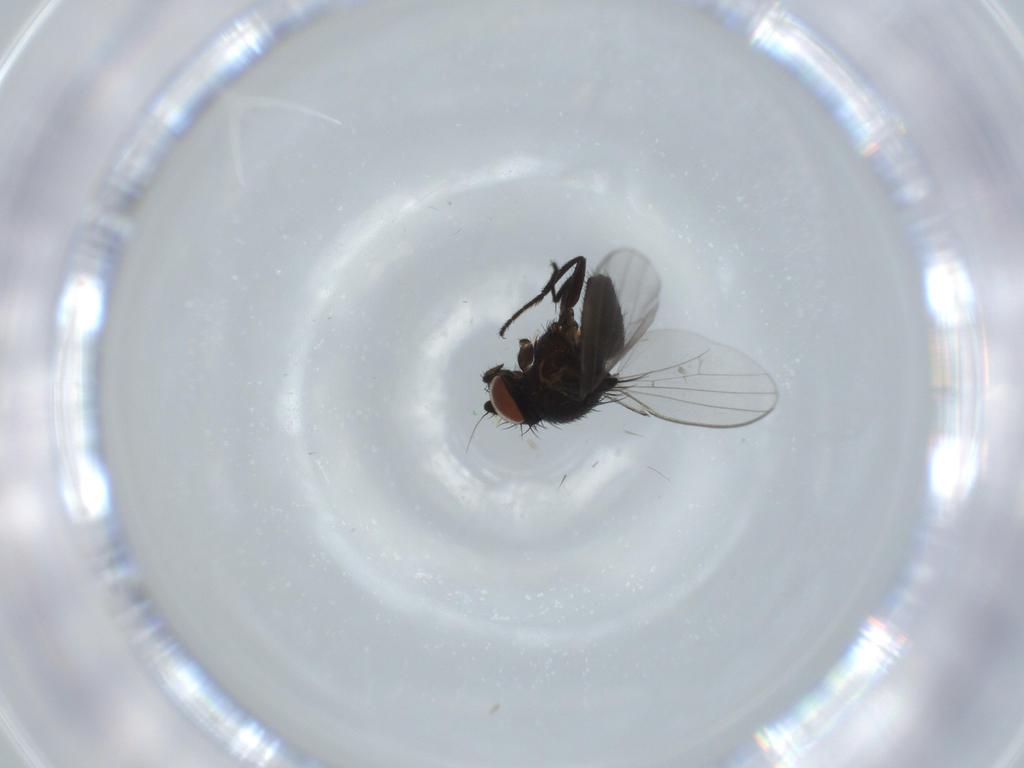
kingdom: Animalia
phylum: Arthropoda
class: Insecta
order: Diptera
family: Milichiidae
